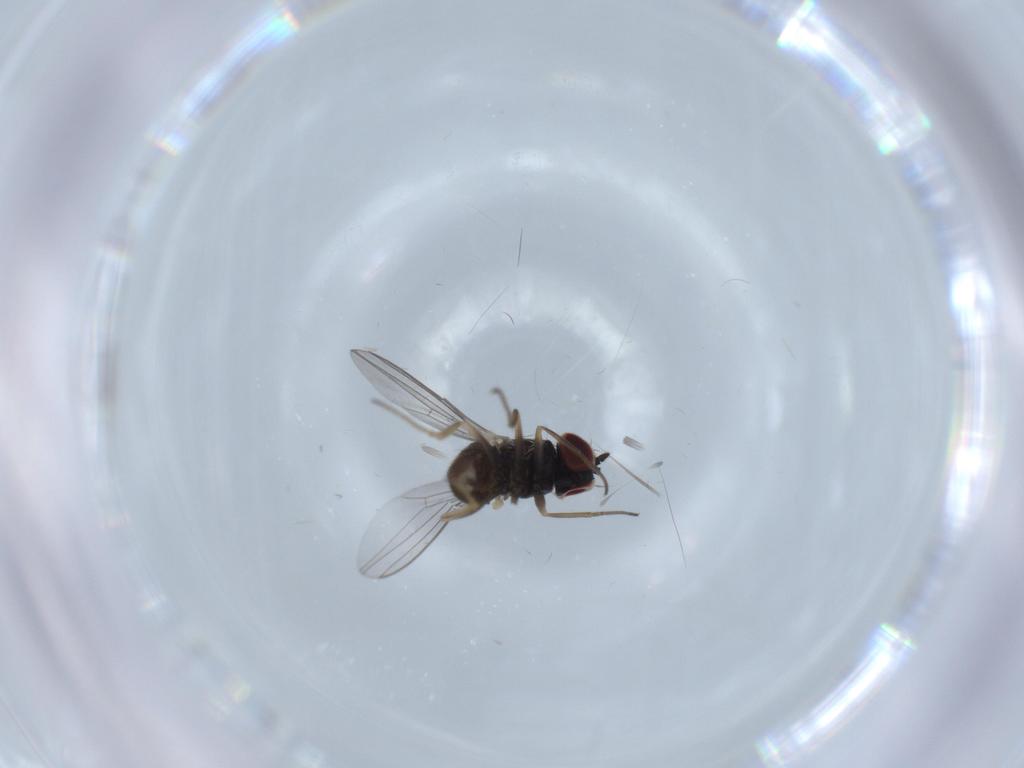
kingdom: Animalia
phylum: Arthropoda
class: Insecta
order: Diptera
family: Dolichopodidae
